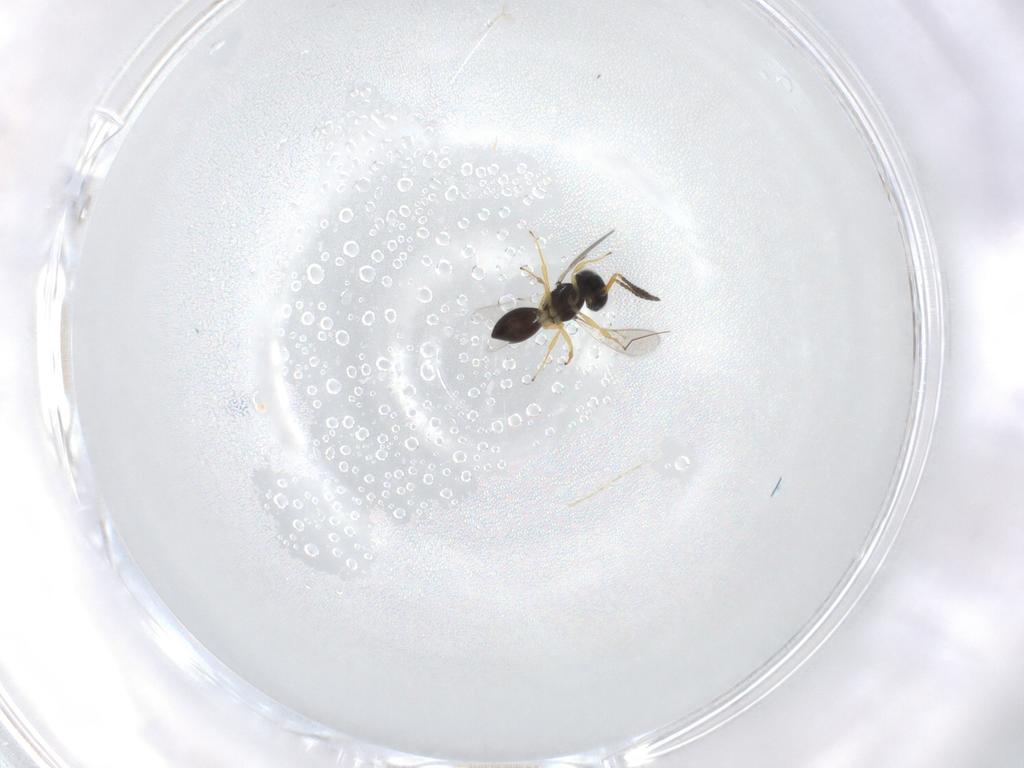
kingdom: Animalia
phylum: Arthropoda
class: Insecta
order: Hymenoptera
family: Scelionidae
